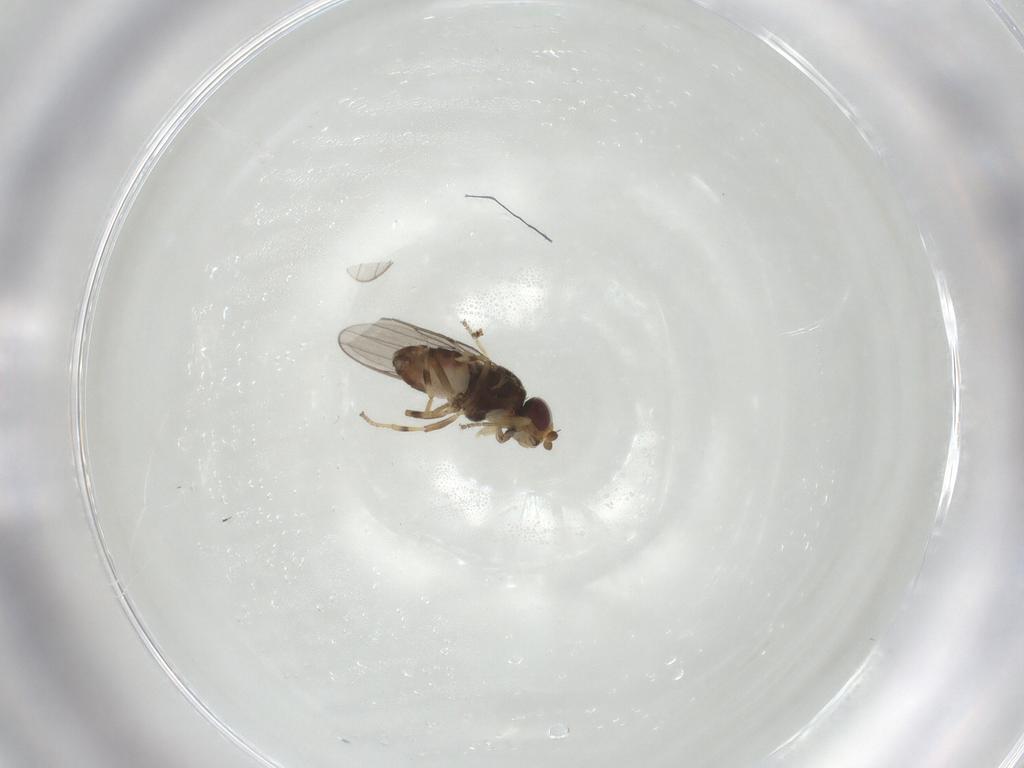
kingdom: Animalia
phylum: Arthropoda
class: Insecta
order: Diptera
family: Chloropidae
